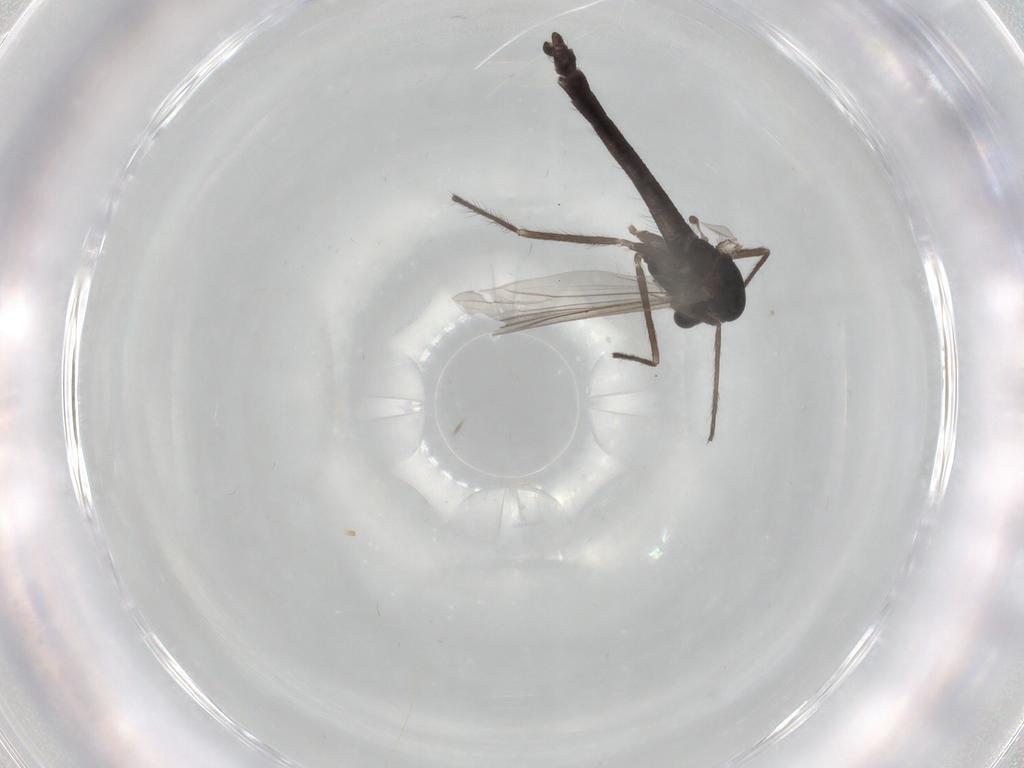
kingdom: Animalia
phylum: Arthropoda
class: Insecta
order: Diptera
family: Chironomidae
